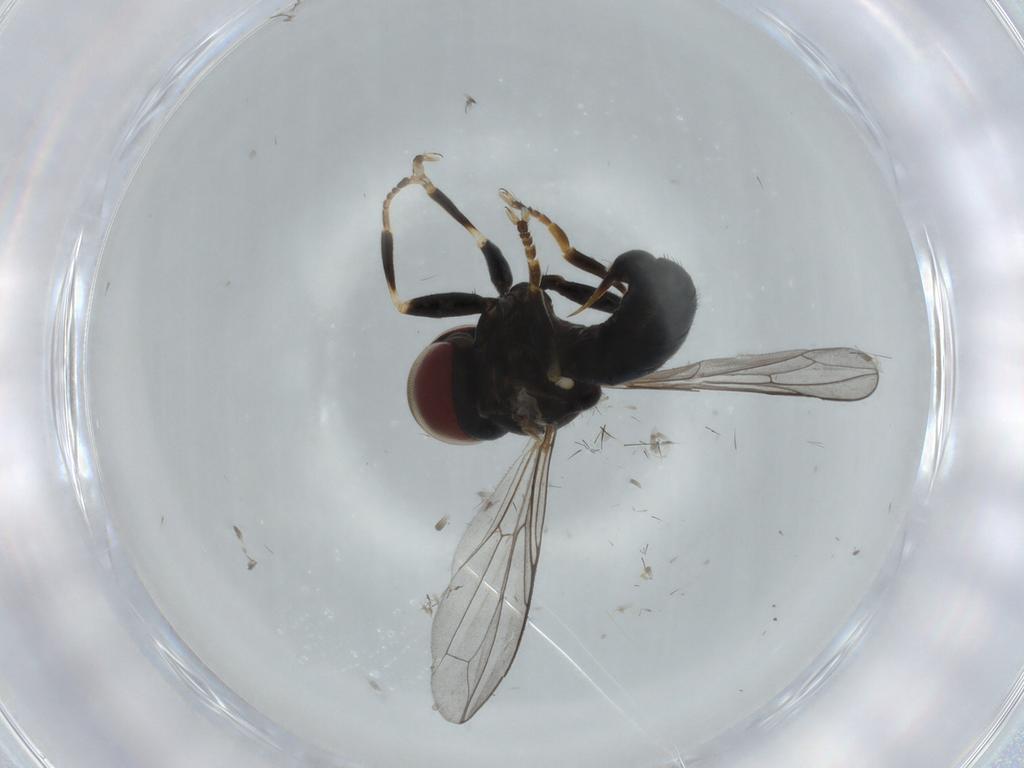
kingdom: Animalia
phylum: Arthropoda
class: Insecta
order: Diptera
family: Pipunculidae
